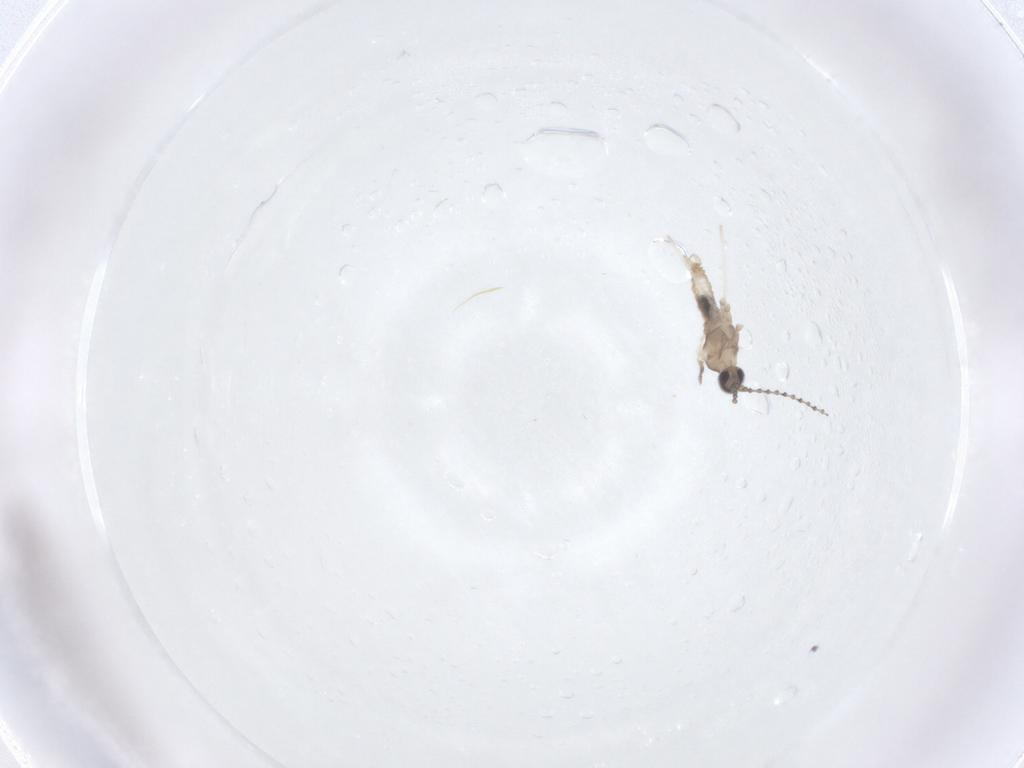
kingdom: Animalia
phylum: Arthropoda
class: Insecta
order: Diptera
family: Cecidomyiidae
